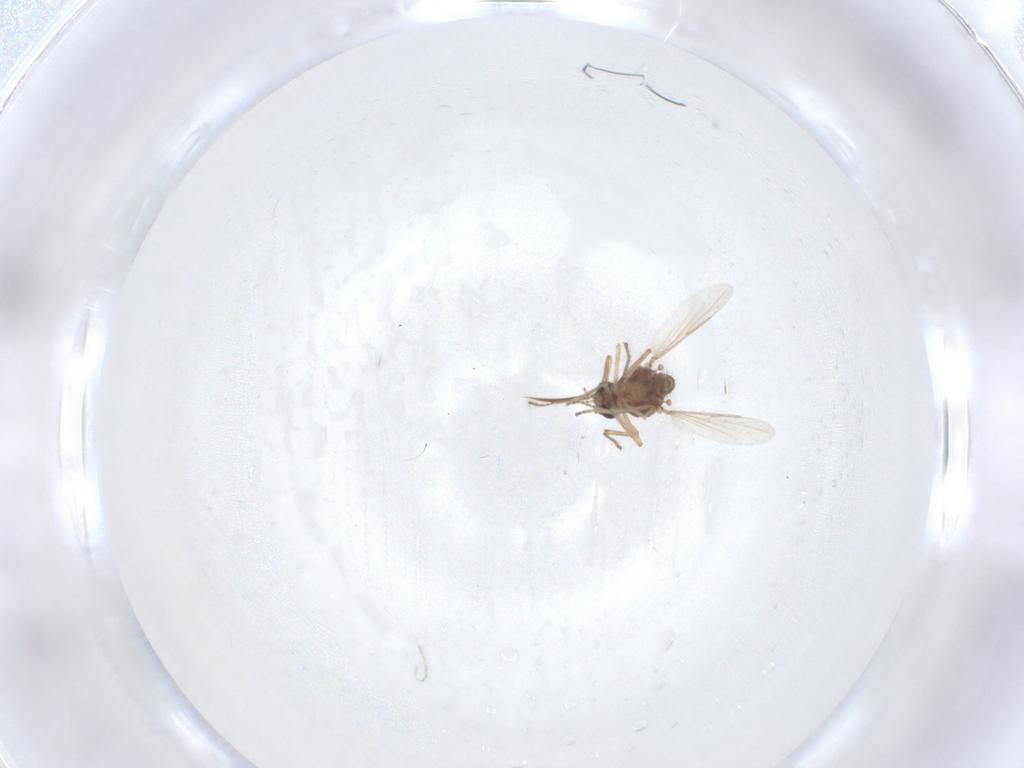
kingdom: Animalia
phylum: Arthropoda
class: Insecta
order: Diptera
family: Ceratopogonidae
